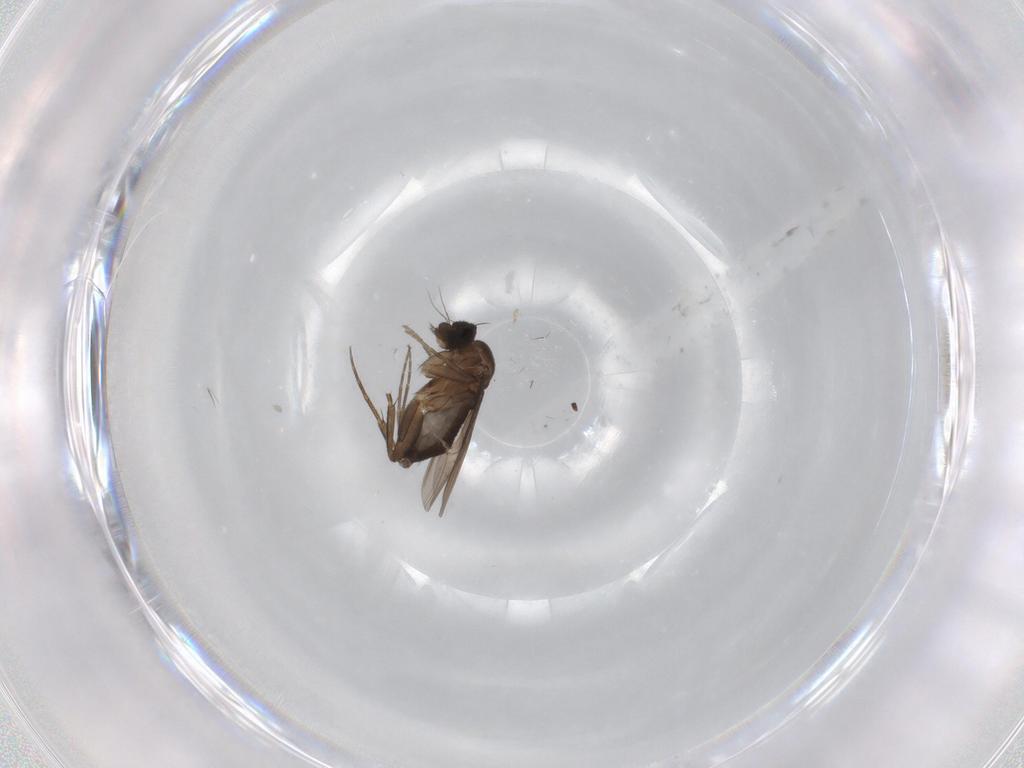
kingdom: Animalia
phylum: Arthropoda
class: Insecta
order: Diptera
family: Phoridae
